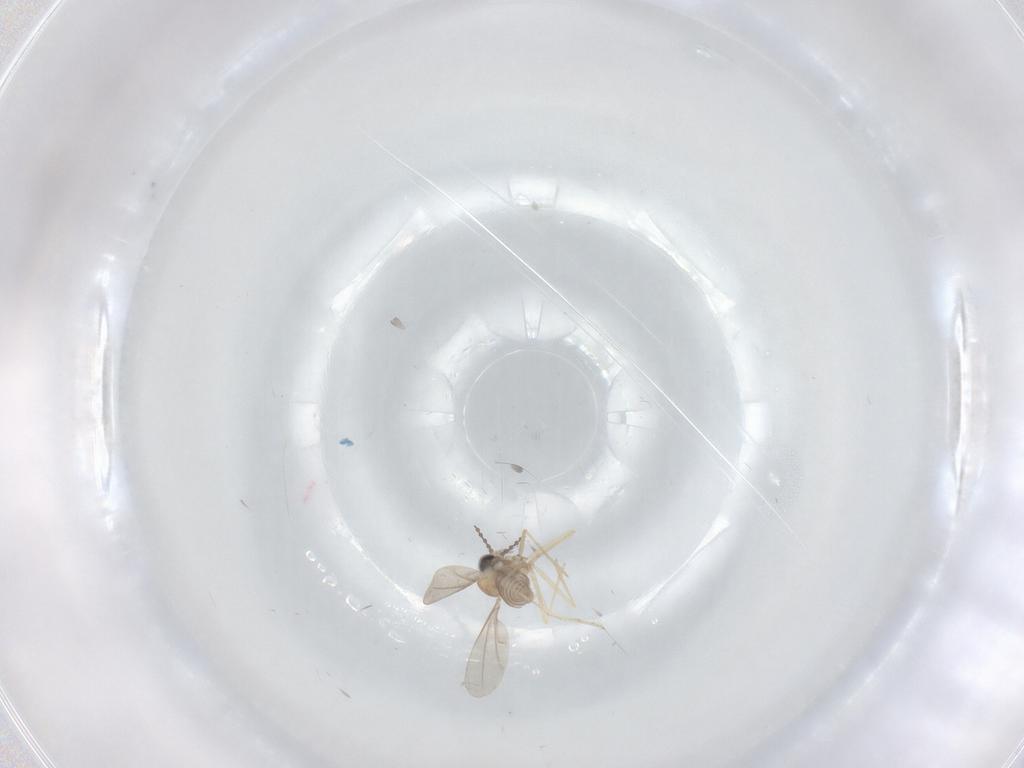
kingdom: Animalia
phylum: Arthropoda
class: Insecta
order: Diptera
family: Cecidomyiidae
